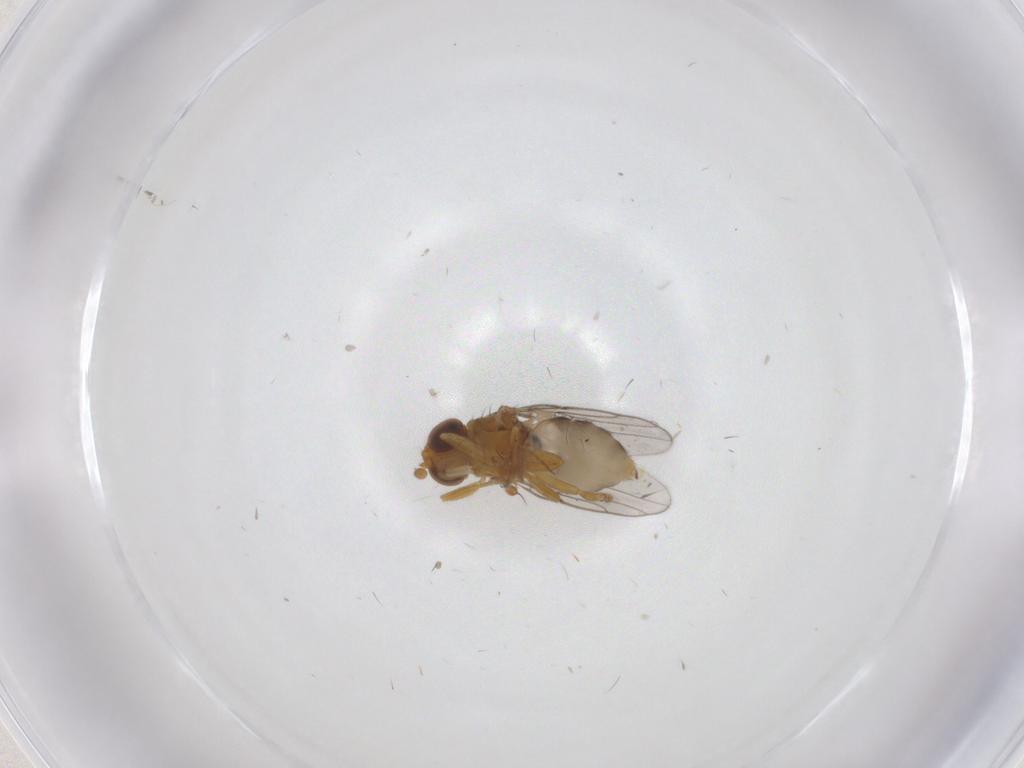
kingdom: Animalia
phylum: Arthropoda
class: Insecta
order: Diptera
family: Chloropidae
